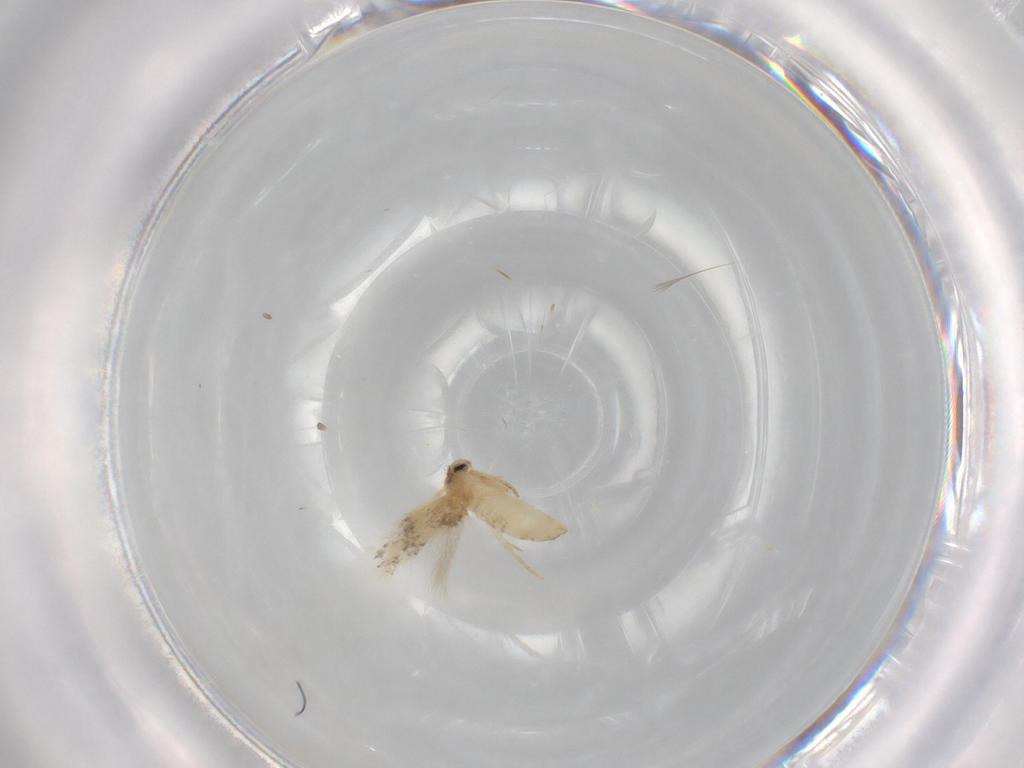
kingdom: Animalia
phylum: Arthropoda
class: Insecta
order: Lepidoptera
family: Nepticulidae
